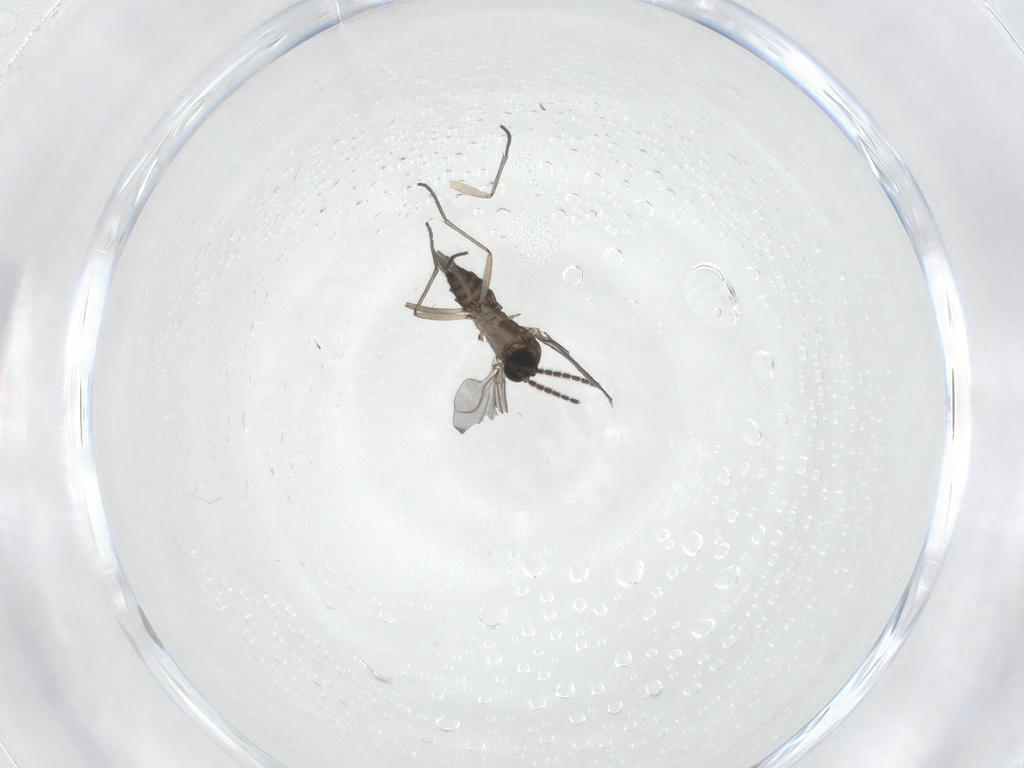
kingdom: Animalia
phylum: Arthropoda
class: Insecta
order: Diptera
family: Sciaridae
